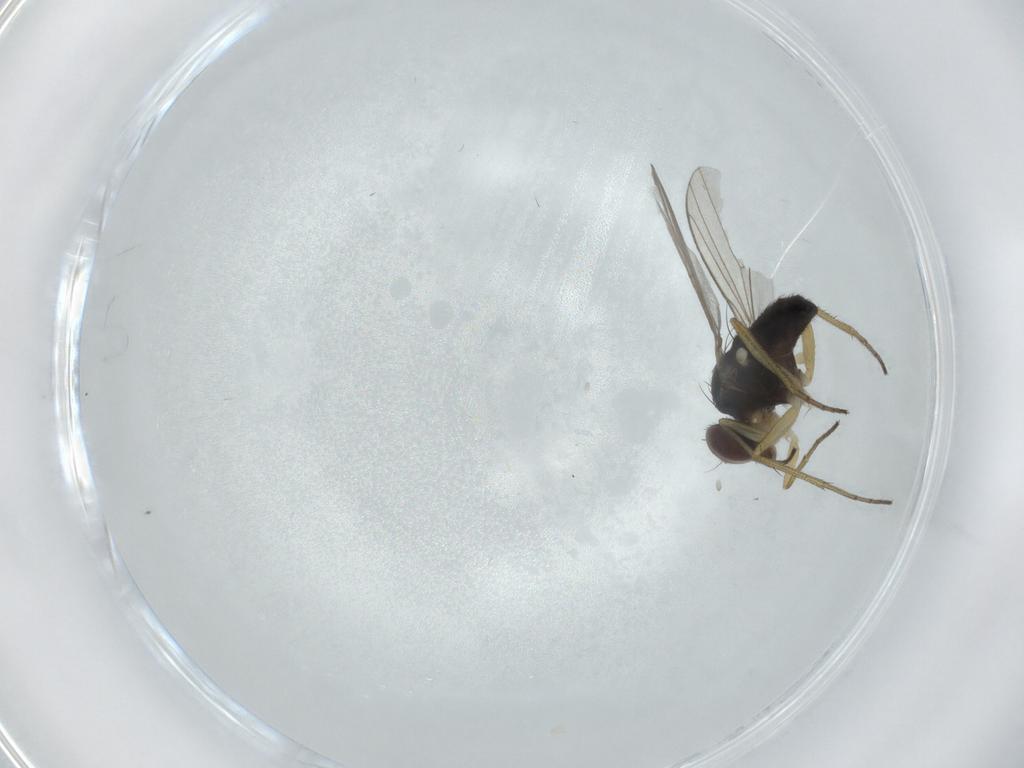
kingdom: Animalia
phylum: Arthropoda
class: Insecta
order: Diptera
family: Dolichopodidae
